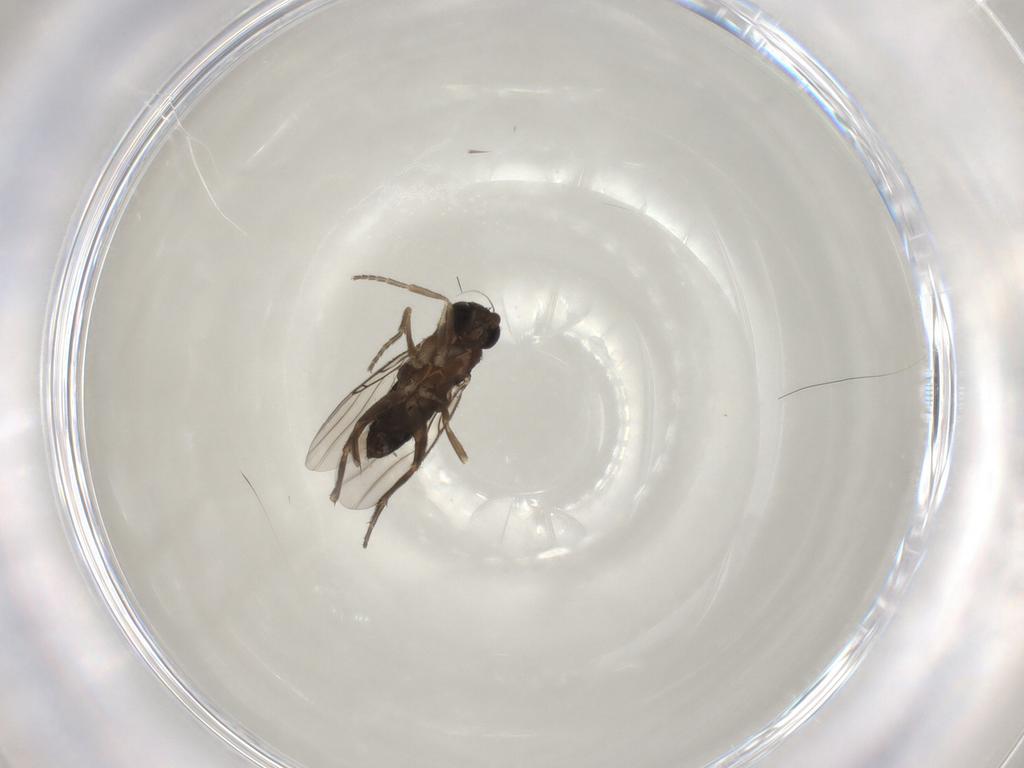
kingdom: Animalia
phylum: Arthropoda
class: Insecta
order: Diptera
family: Phoridae
